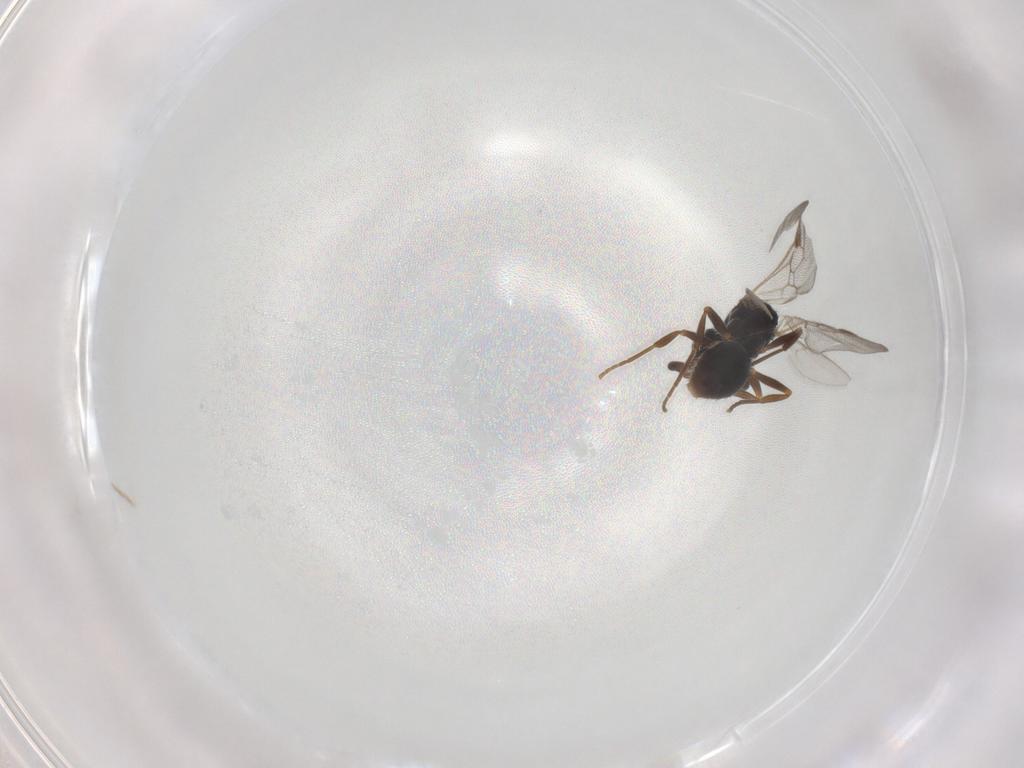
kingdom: Animalia
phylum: Arthropoda
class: Insecta
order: Hymenoptera
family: Formicidae
